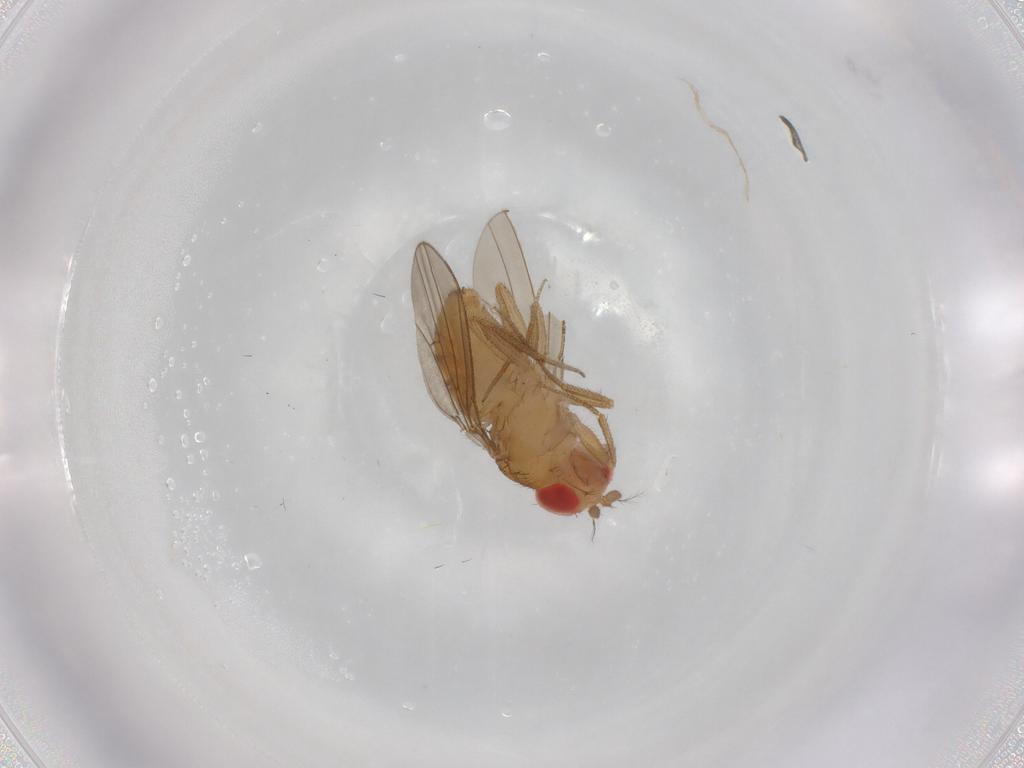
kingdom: Animalia
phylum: Arthropoda
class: Insecta
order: Diptera
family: Drosophilidae
